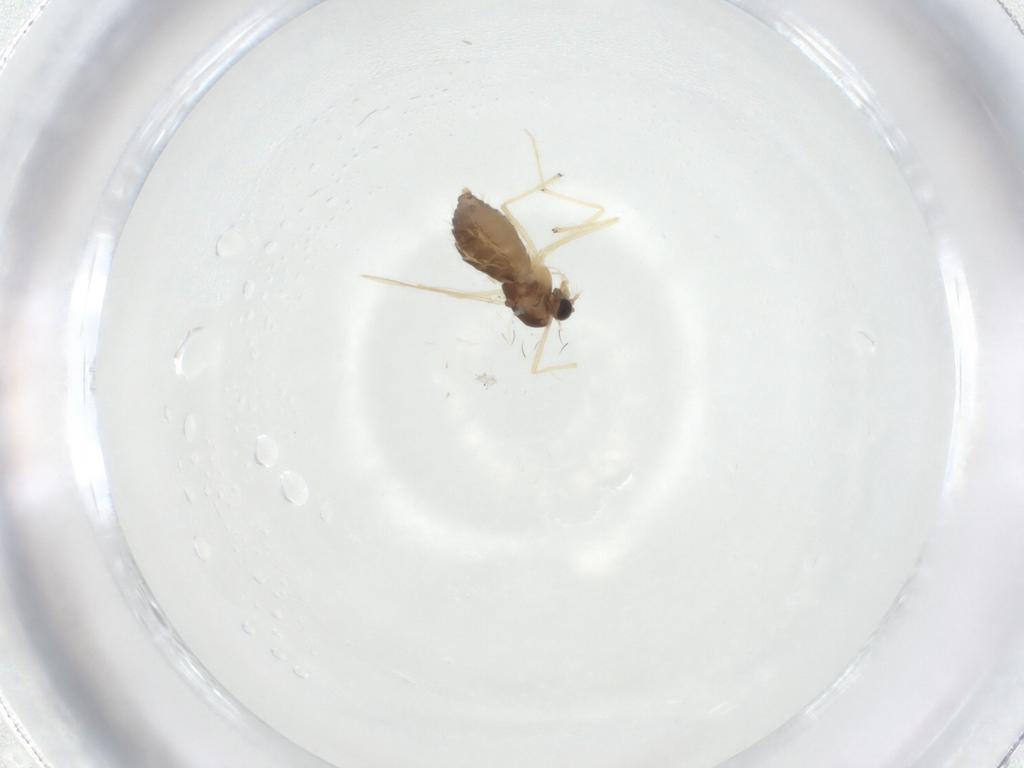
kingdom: Animalia
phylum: Arthropoda
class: Insecta
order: Diptera
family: Chironomidae
